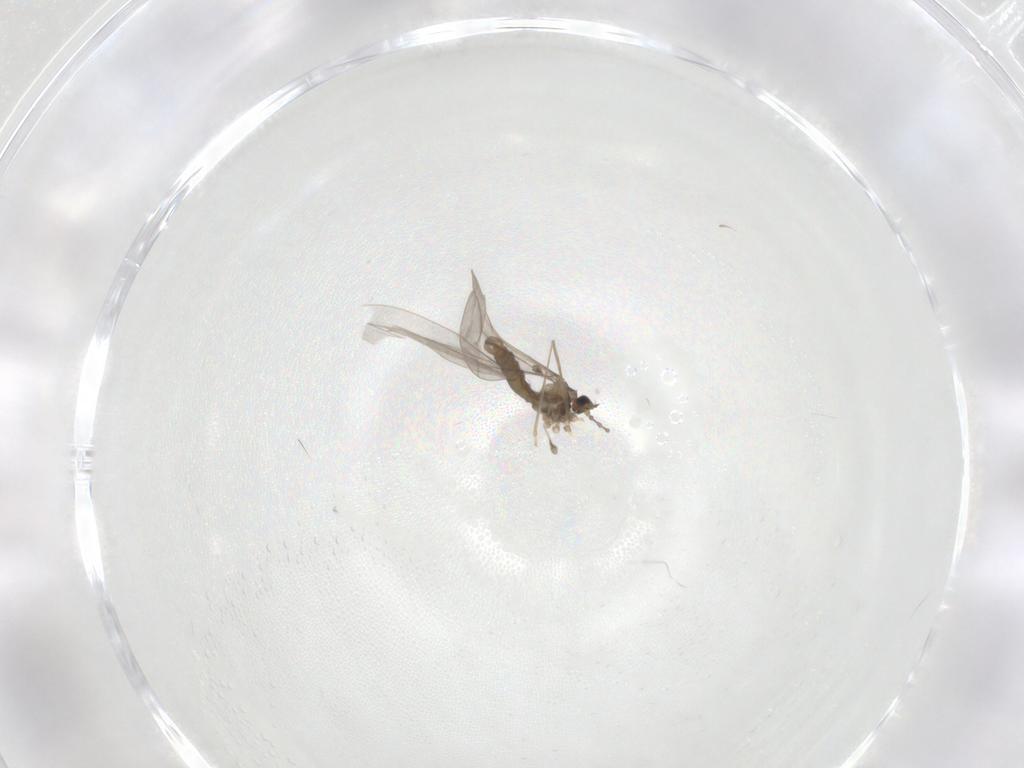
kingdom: Animalia
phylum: Arthropoda
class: Insecta
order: Diptera
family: Cecidomyiidae
